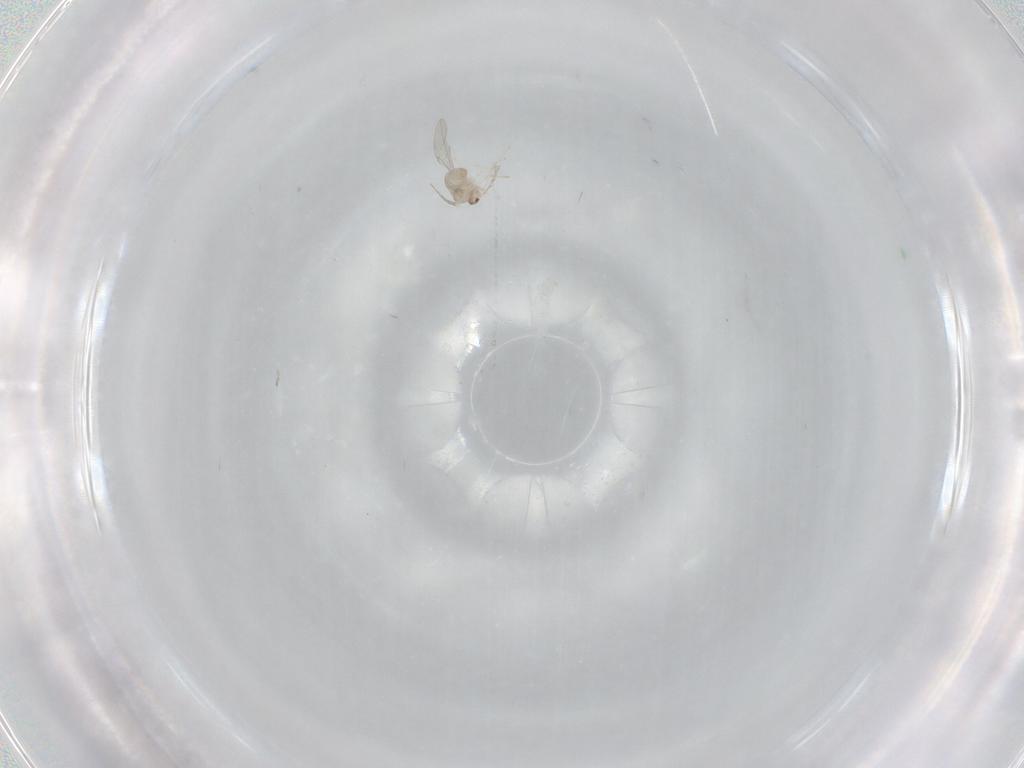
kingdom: Animalia
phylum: Arthropoda
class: Insecta
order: Diptera
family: Cecidomyiidae
